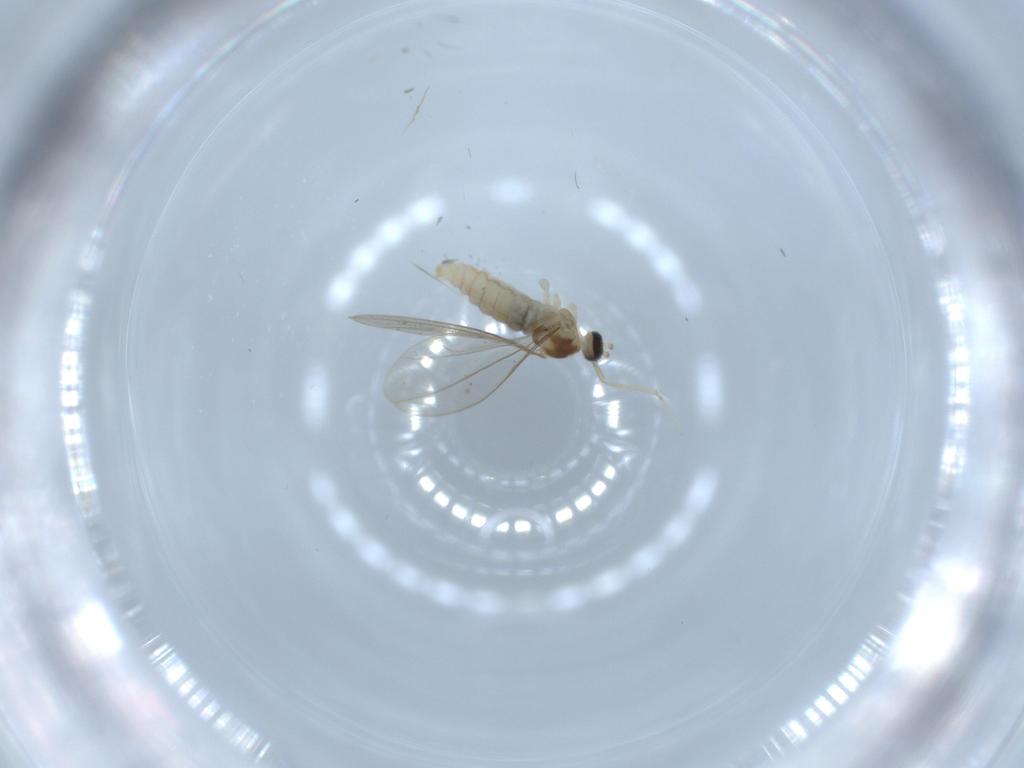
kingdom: Animalia
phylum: Arthropoda
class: Insecta
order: Diptera
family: Cecidomyiidae
